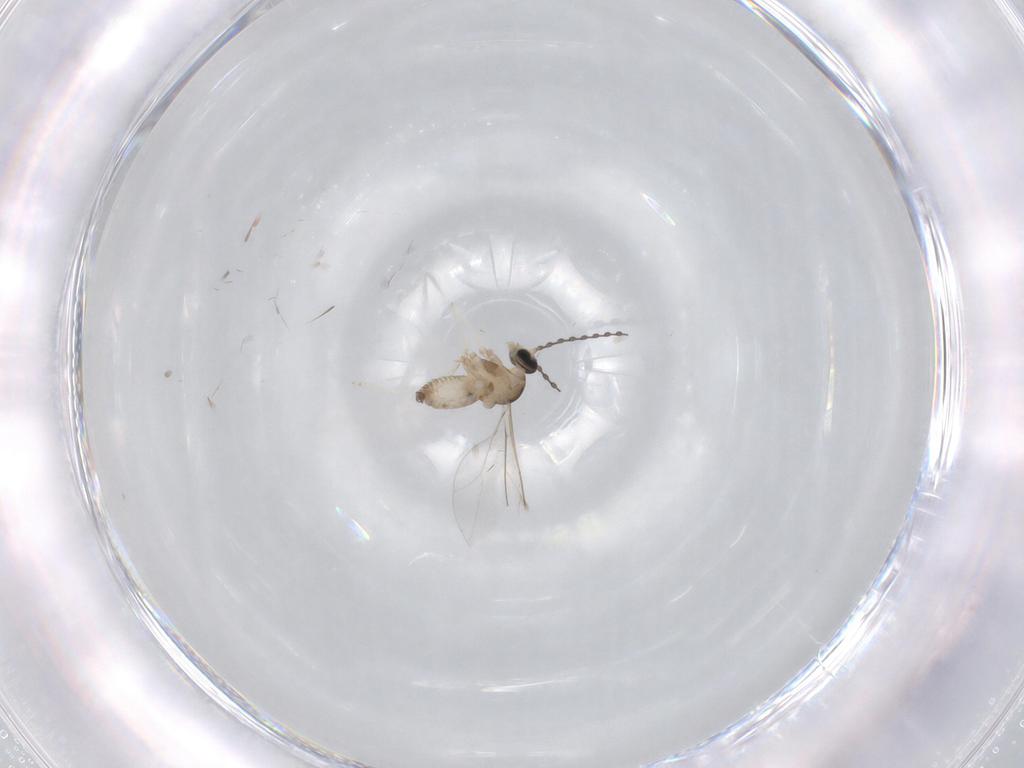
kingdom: Animalia
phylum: Arthropoda
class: Insecta
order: Diptera
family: Cecidomyiidae
